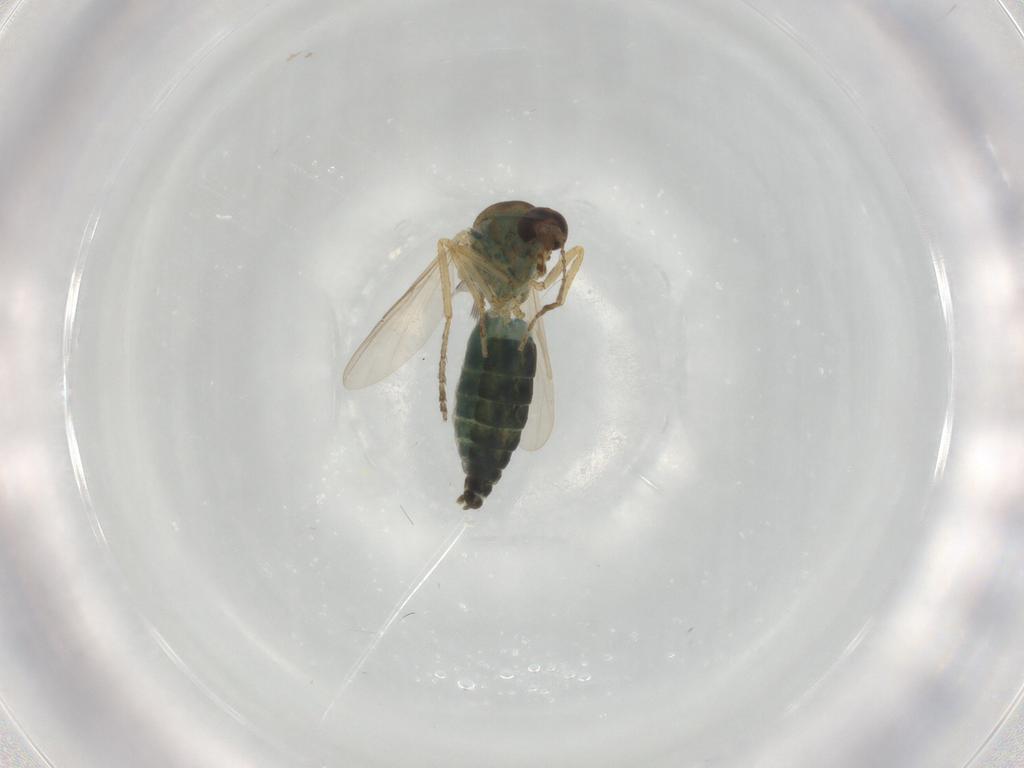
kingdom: Animalia
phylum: Arthropoda
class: Insecta
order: Diptera
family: Ceratopogonidae
